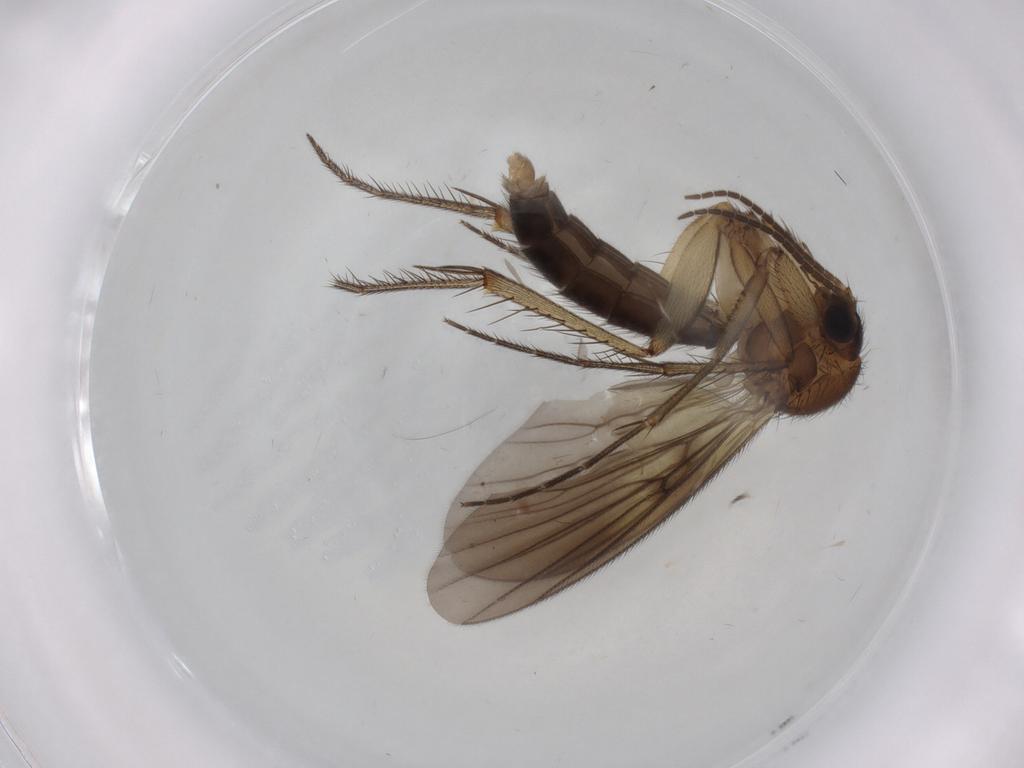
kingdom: Animalia
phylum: Arthropoda
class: Insecta
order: Diptera
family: Mycetophilidae
